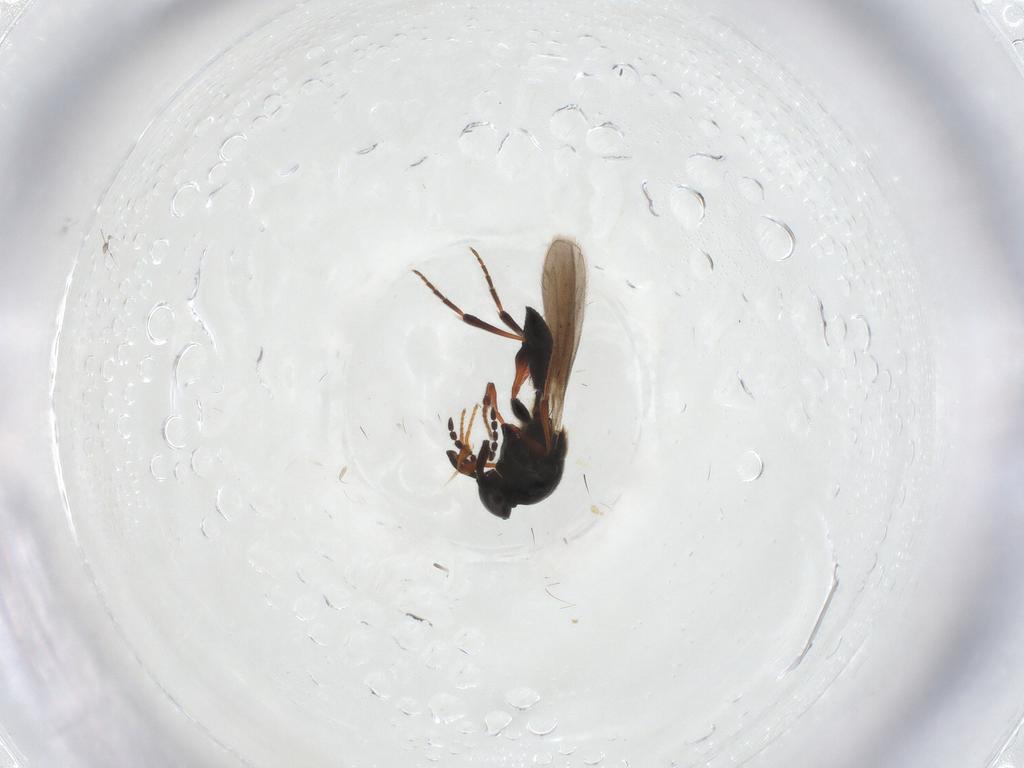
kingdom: Animalia
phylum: Arthropoda
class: Insecta
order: Hymenoptera
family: Platygastridae
